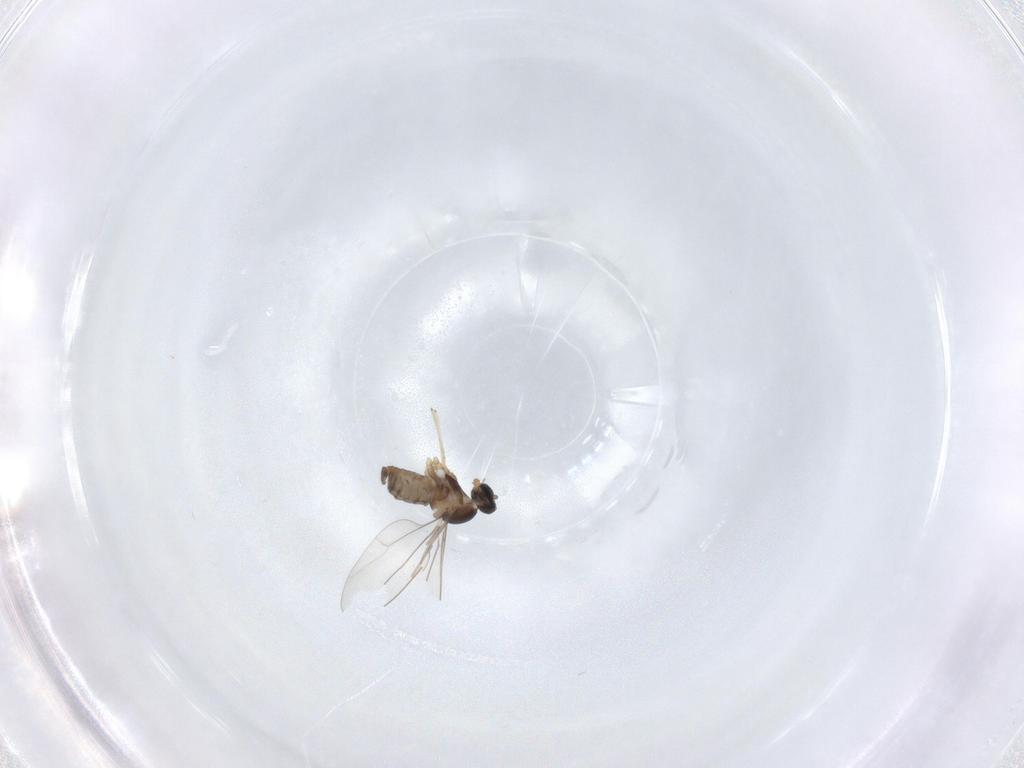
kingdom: Animalia
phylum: Arthropoda
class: Insecta
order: Diptera
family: Cecidomyiidae
